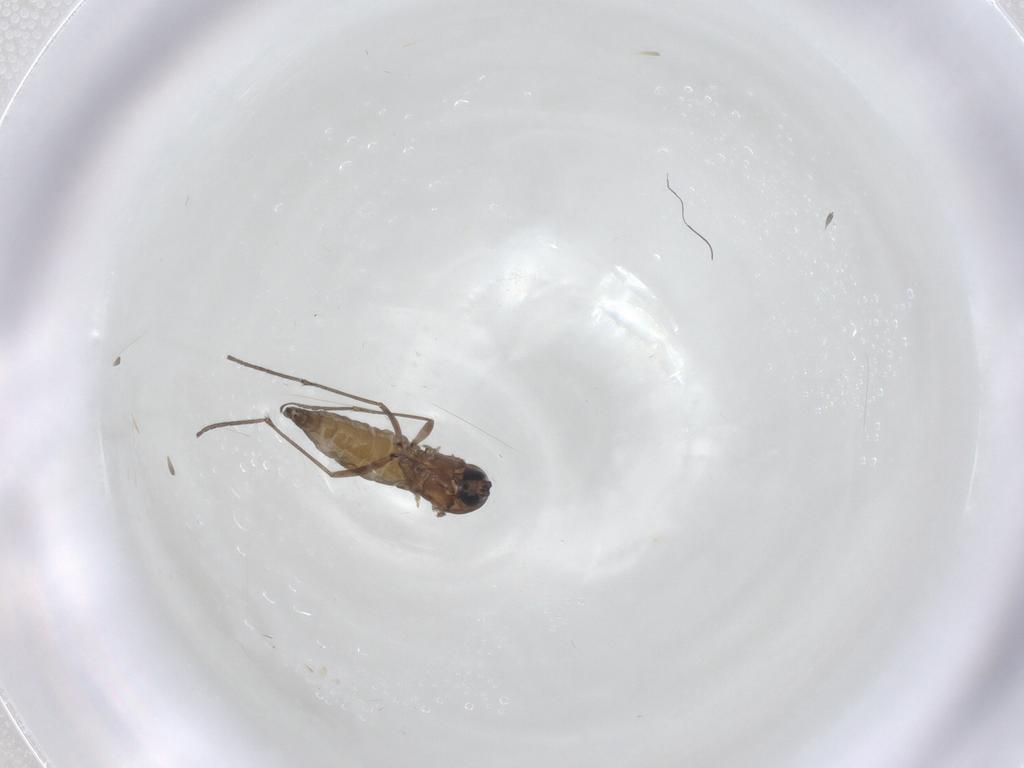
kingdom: Animalia
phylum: Arthropoda
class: Insecta
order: Diptera
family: Sciaridae
